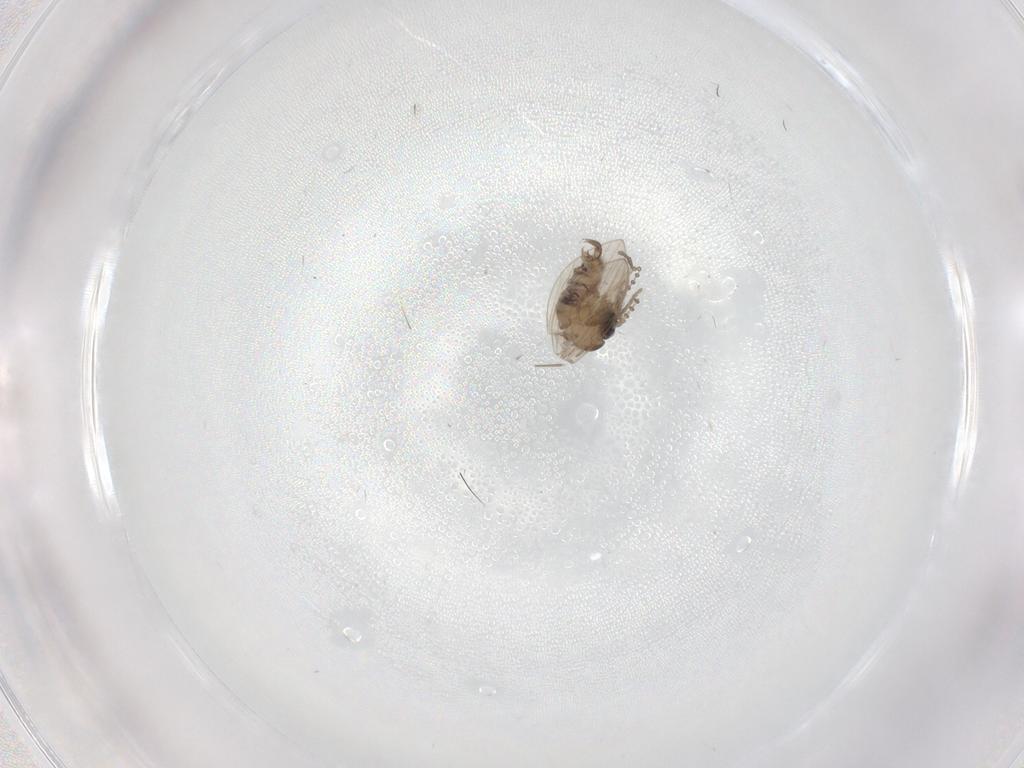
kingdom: Animalia
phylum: Arthropoda
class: Insecta
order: Diptera
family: Psychodidae
